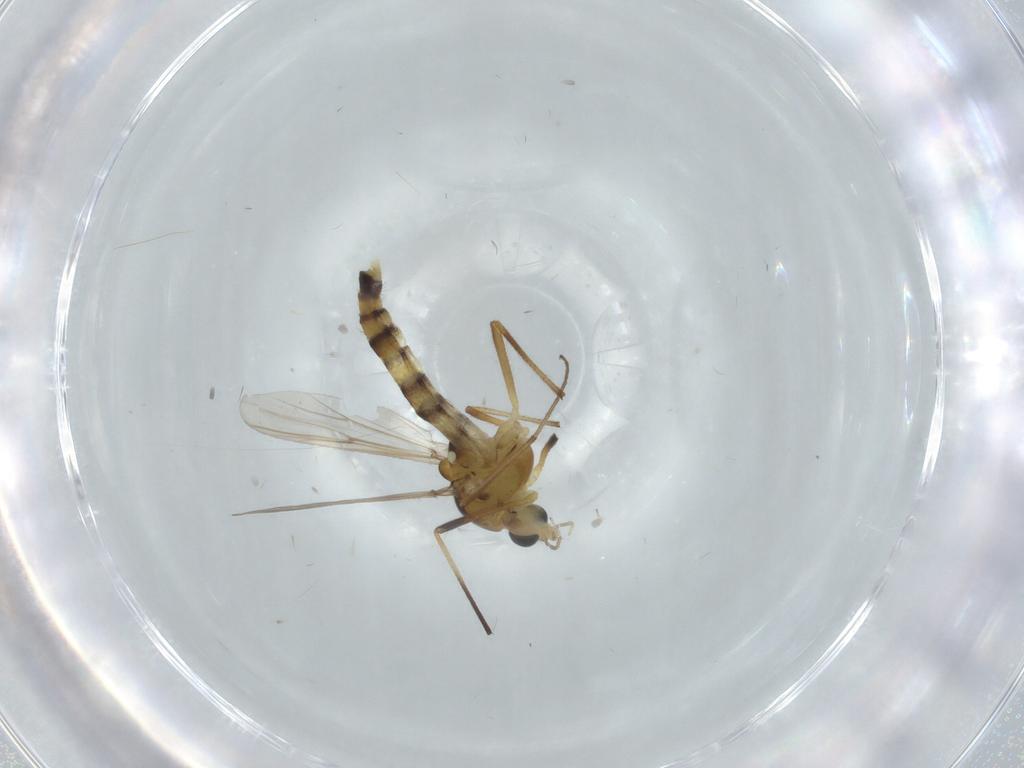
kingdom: Animalia
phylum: Arthropoda
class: Insecta
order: Diptera
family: Chironomidae
